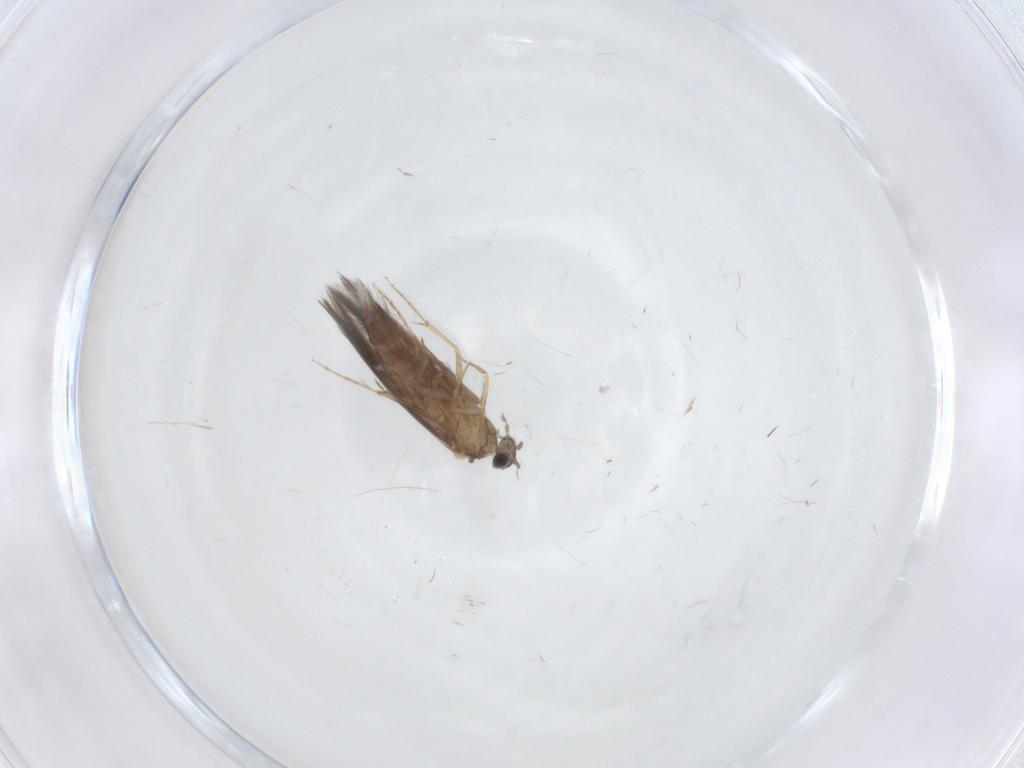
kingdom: Animalia
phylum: Arthropoda
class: Insecta
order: Trichoptera
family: Hydroptilidae
